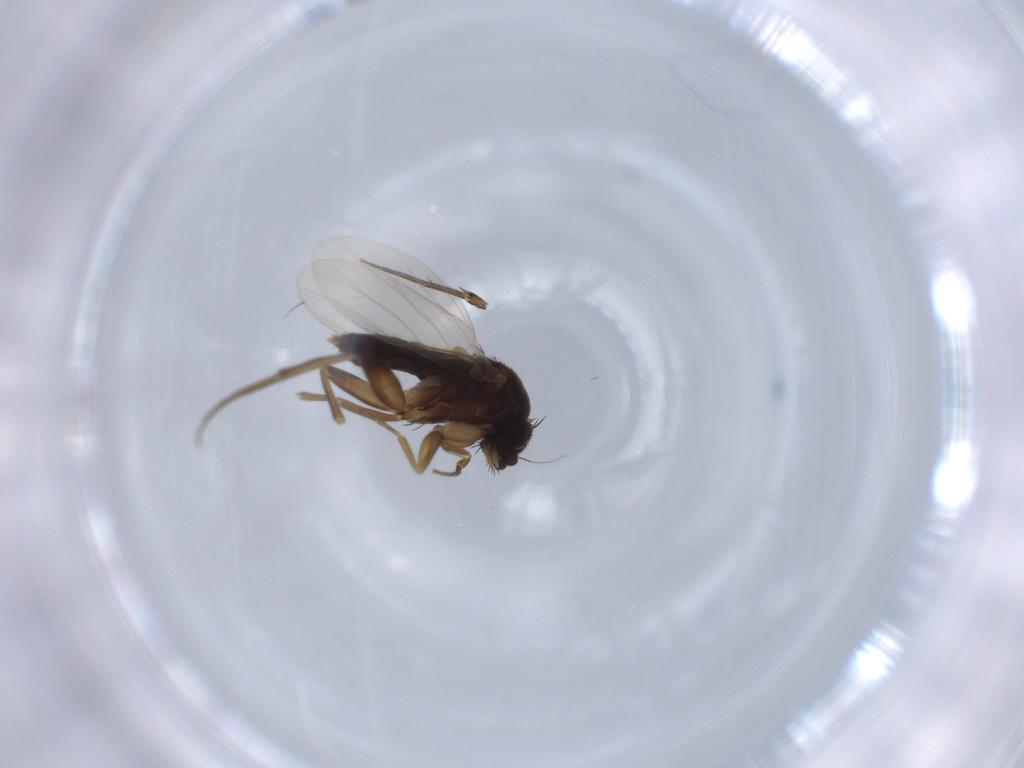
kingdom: Animalia
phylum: Arthropoda
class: Insecta
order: Diptera
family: Phoridae
